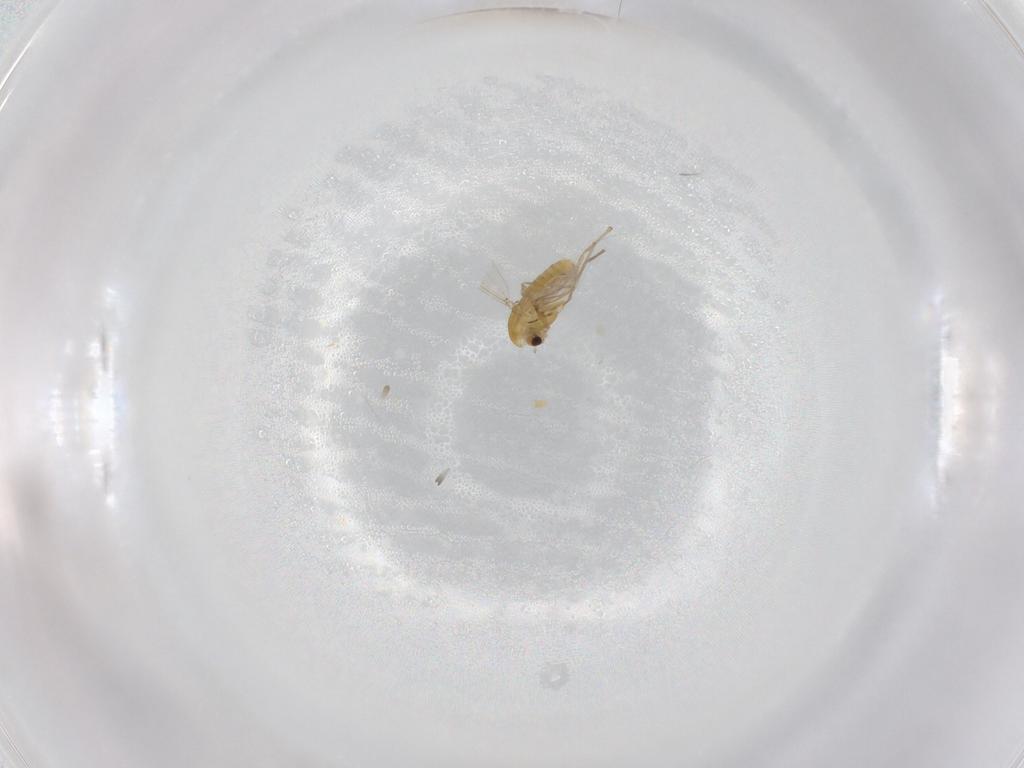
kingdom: Animalia
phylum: Arthropoda
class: Insecta
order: Diptera
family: Chironomidae
